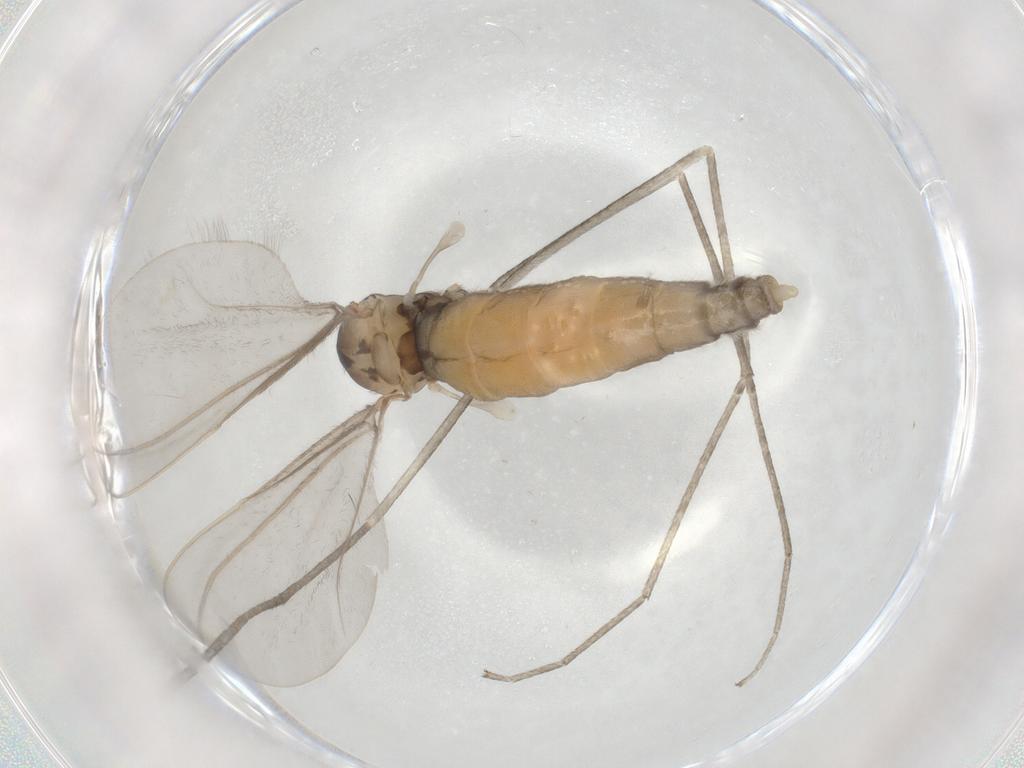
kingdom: Animalia
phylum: Arthropoda
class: Insecta
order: Diptera
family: Cecidomyiidae
